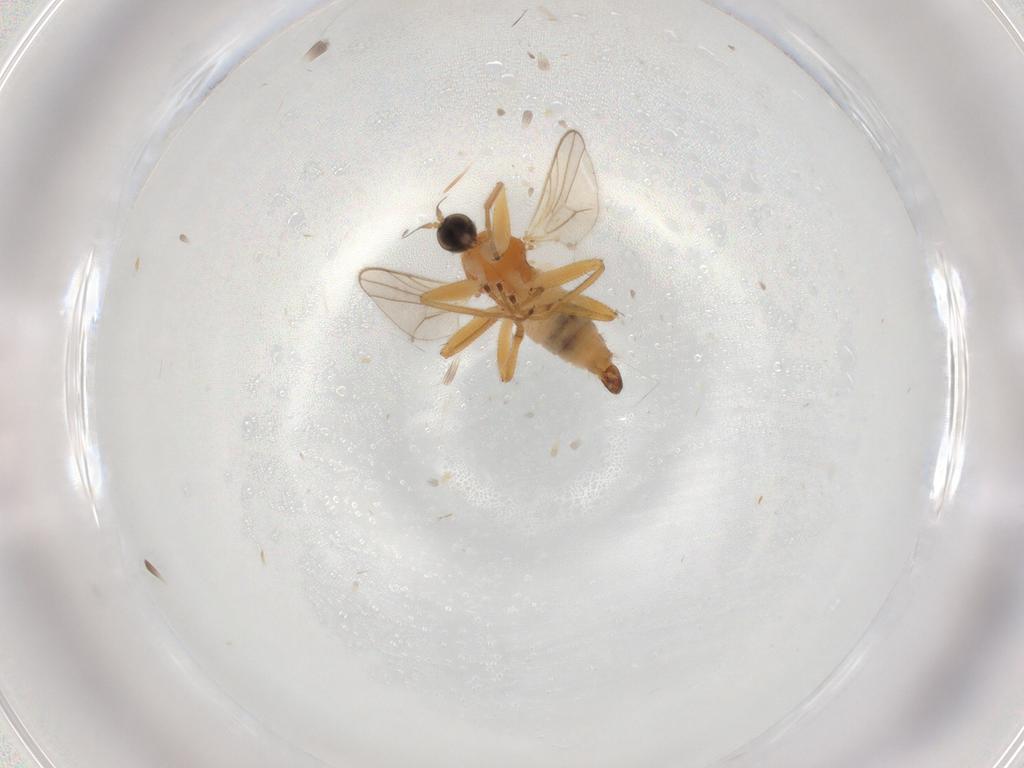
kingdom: Animalia
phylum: Arthropoda
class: Insecta
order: Diptera
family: Hybotidae
